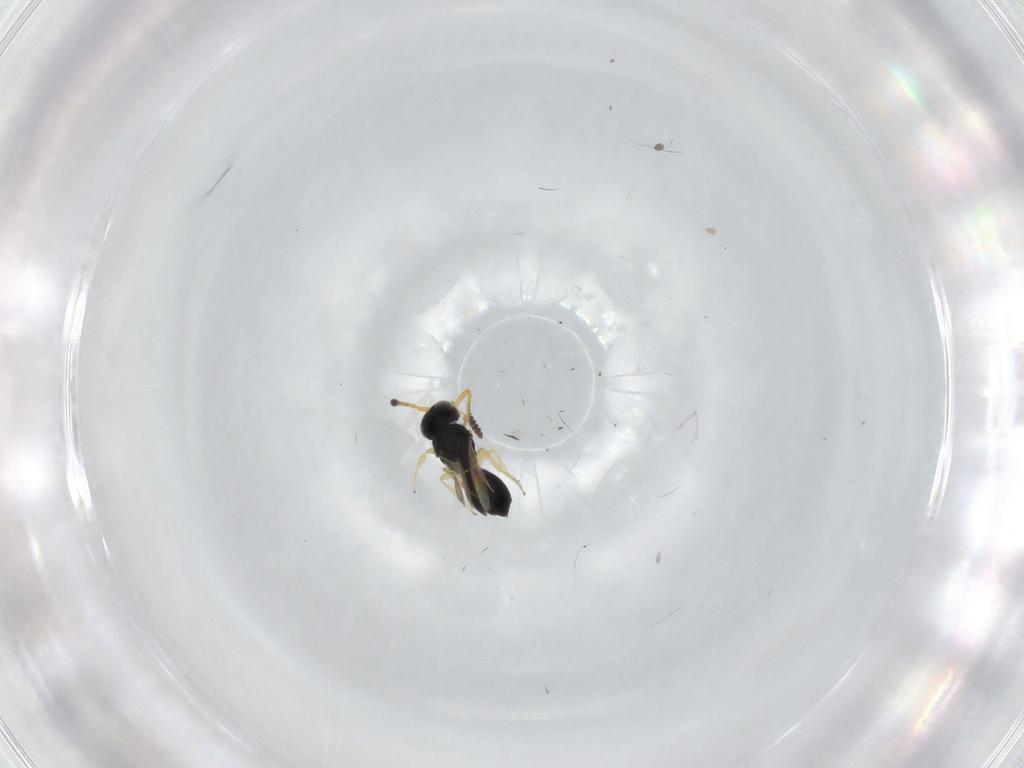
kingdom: Animalia
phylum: Arthropoda
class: Insecta
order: Hymenoptera
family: Scelionidae
